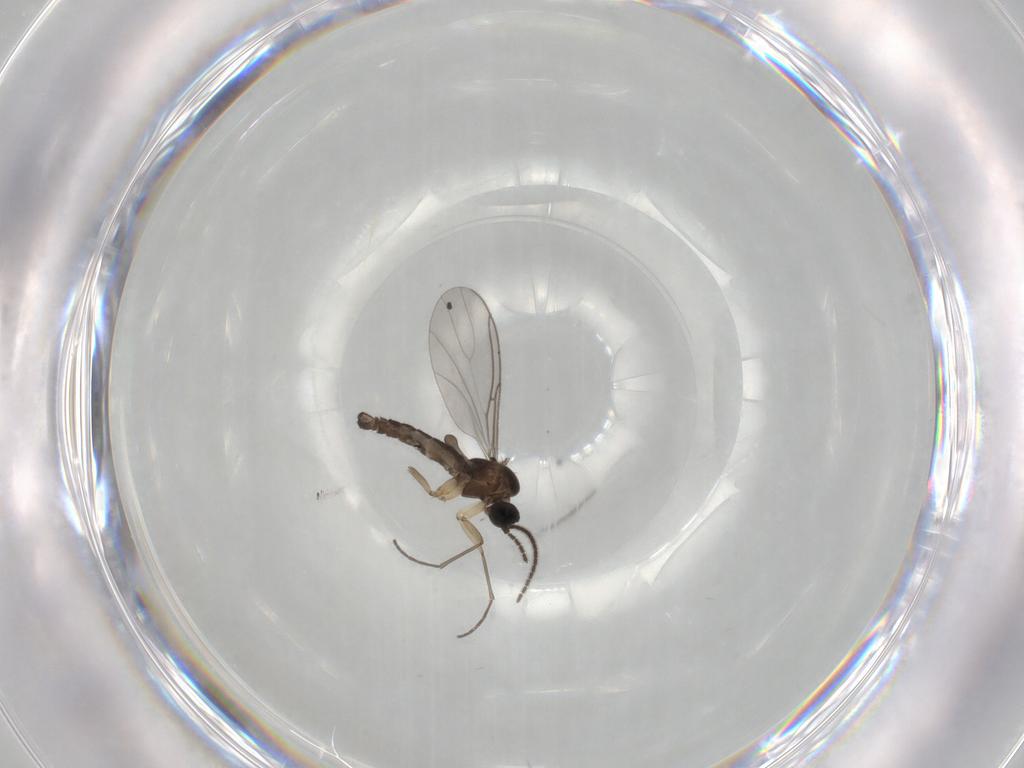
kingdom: Animalia
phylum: Arthropoda
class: Insecta
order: Diptera
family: Sciaridae
